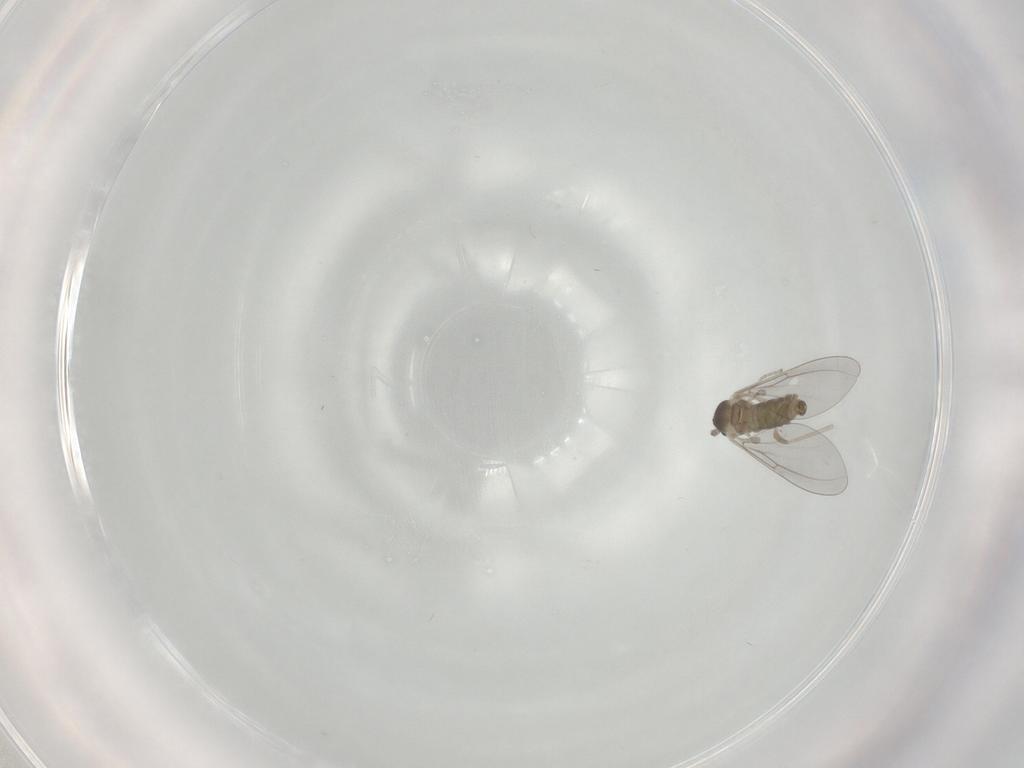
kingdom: Animalia
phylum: Arthropoda
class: Insecta
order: Diptera
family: Cecidomyiidae
